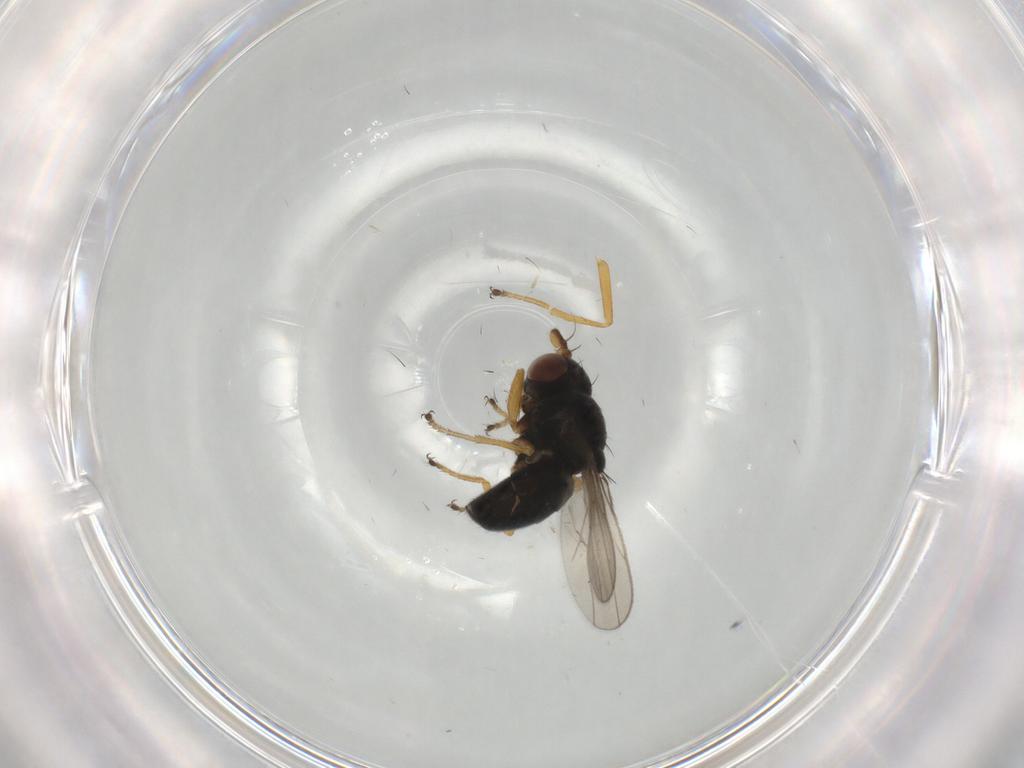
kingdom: Animalia
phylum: Arthropoda
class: Insecta
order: Diptera
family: Ephydridae
